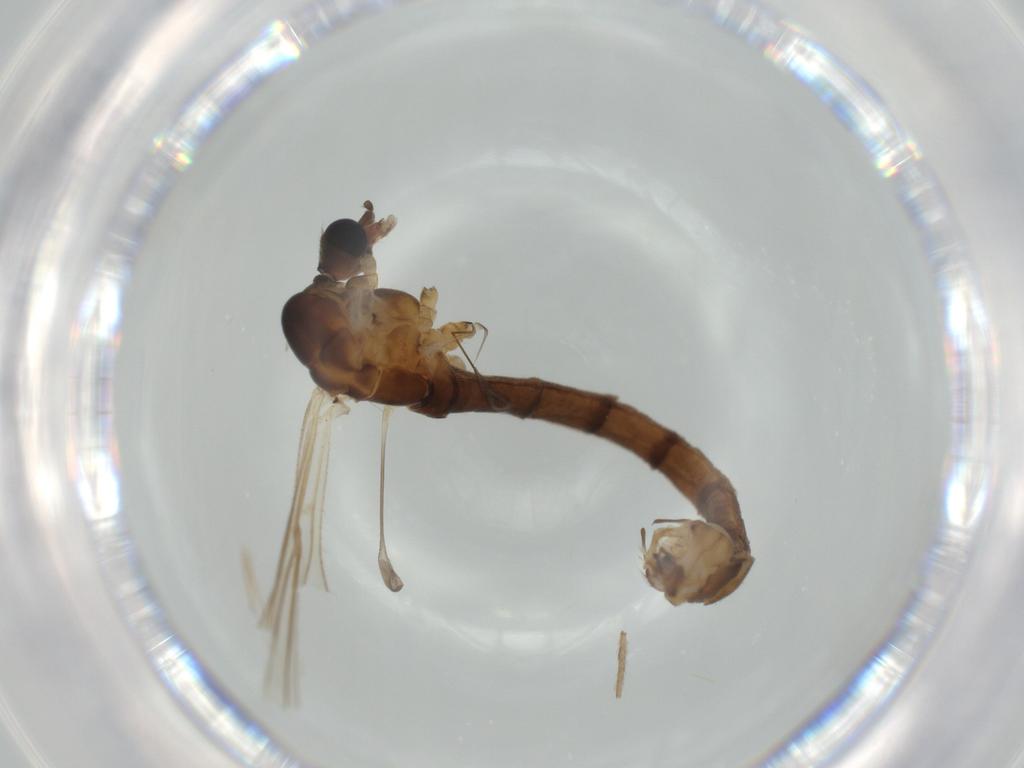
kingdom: Animalia
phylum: Arthropoda
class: Insecta
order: Diptera
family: Limoniidae
